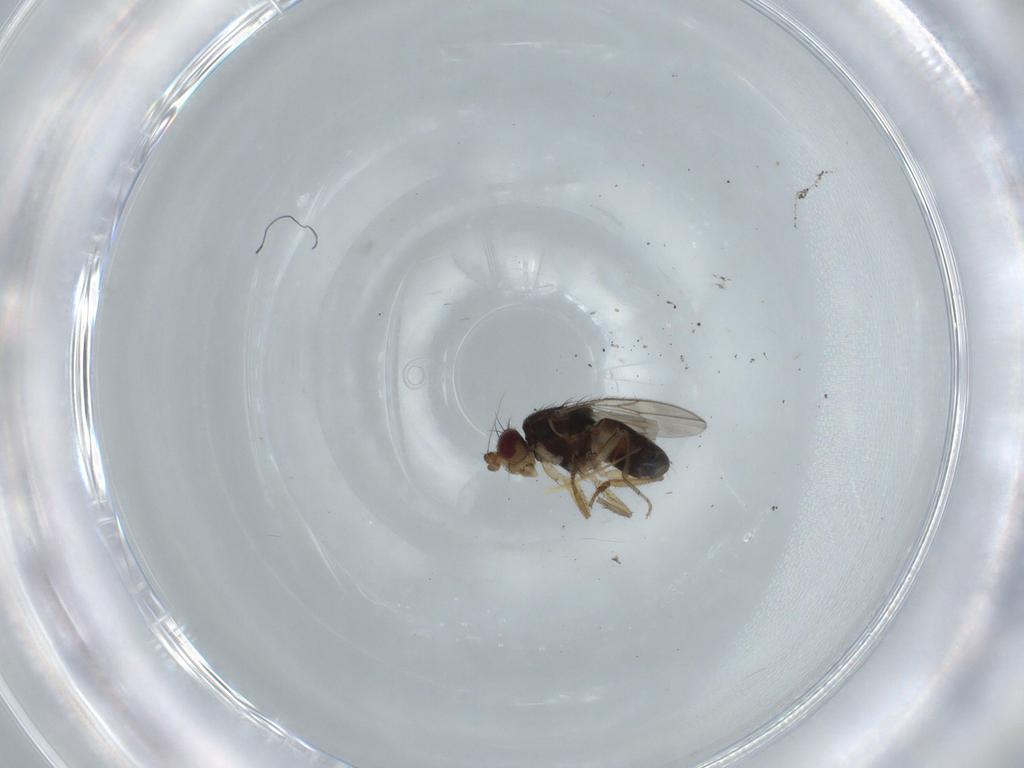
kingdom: Animalia
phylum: Arthropoda
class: Insecta
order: Diptera
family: Sphaeroceridae
